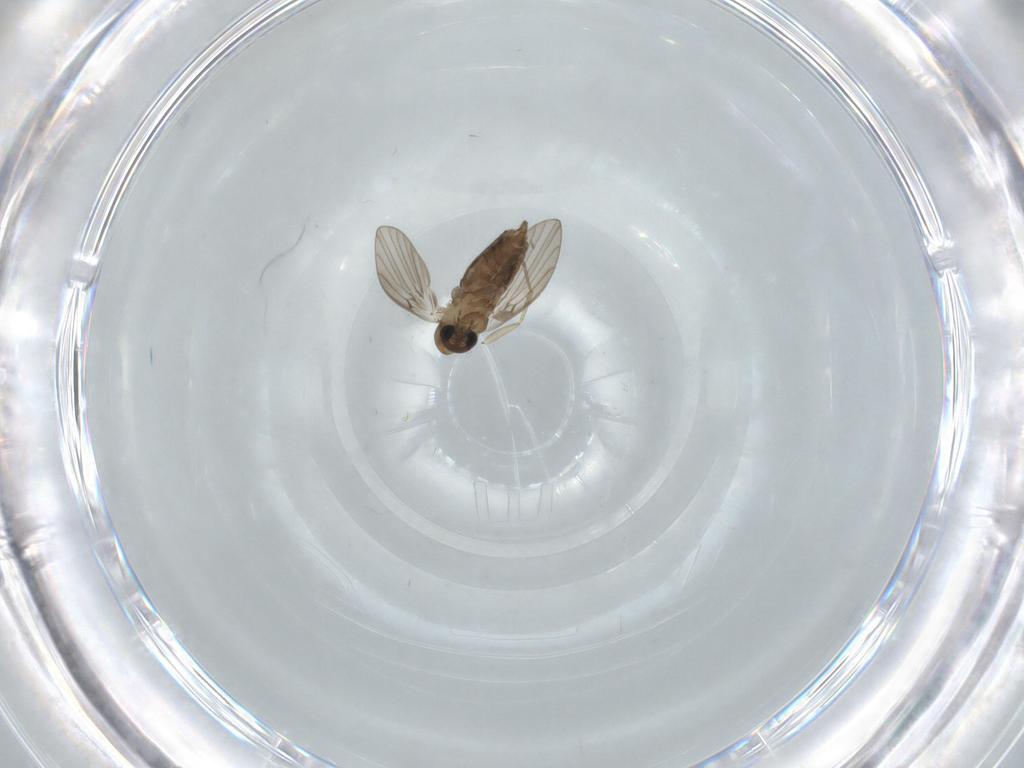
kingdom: Animalia
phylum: Arthropoda
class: Insecta
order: Diptera
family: Psychodidae
